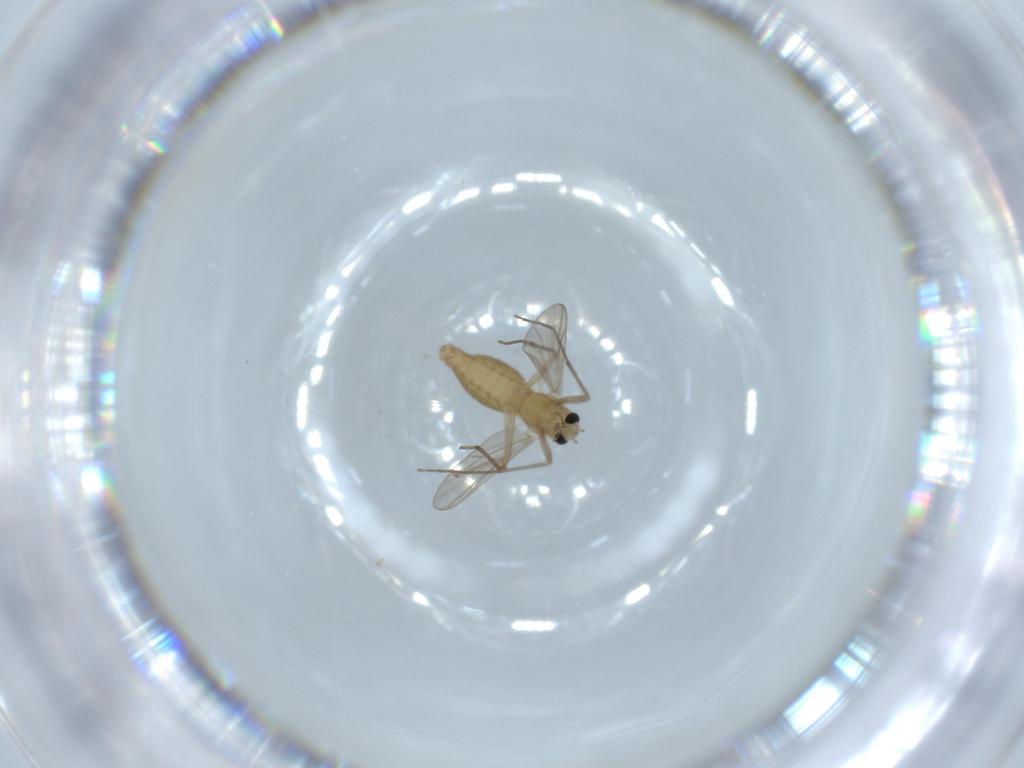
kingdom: Animalia
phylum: Arthropoda
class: Insecta
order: Diptera
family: Chironomidae
